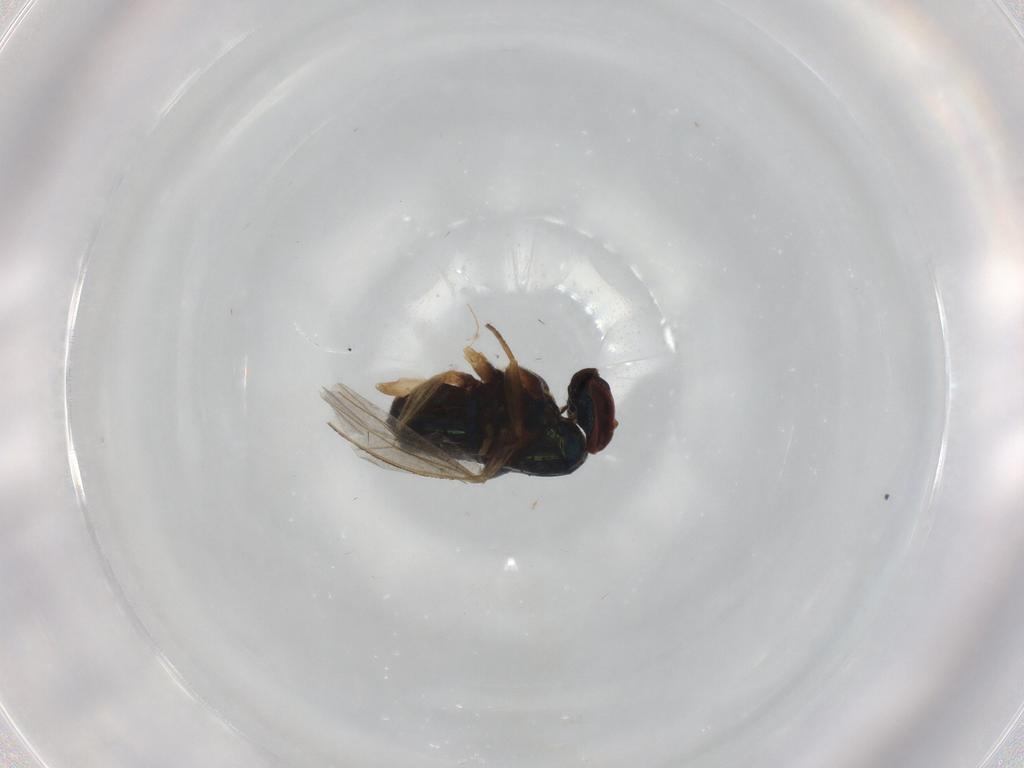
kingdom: Animalia
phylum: Arthropoda
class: Insecta
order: Diptera
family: Dolichopodidae
